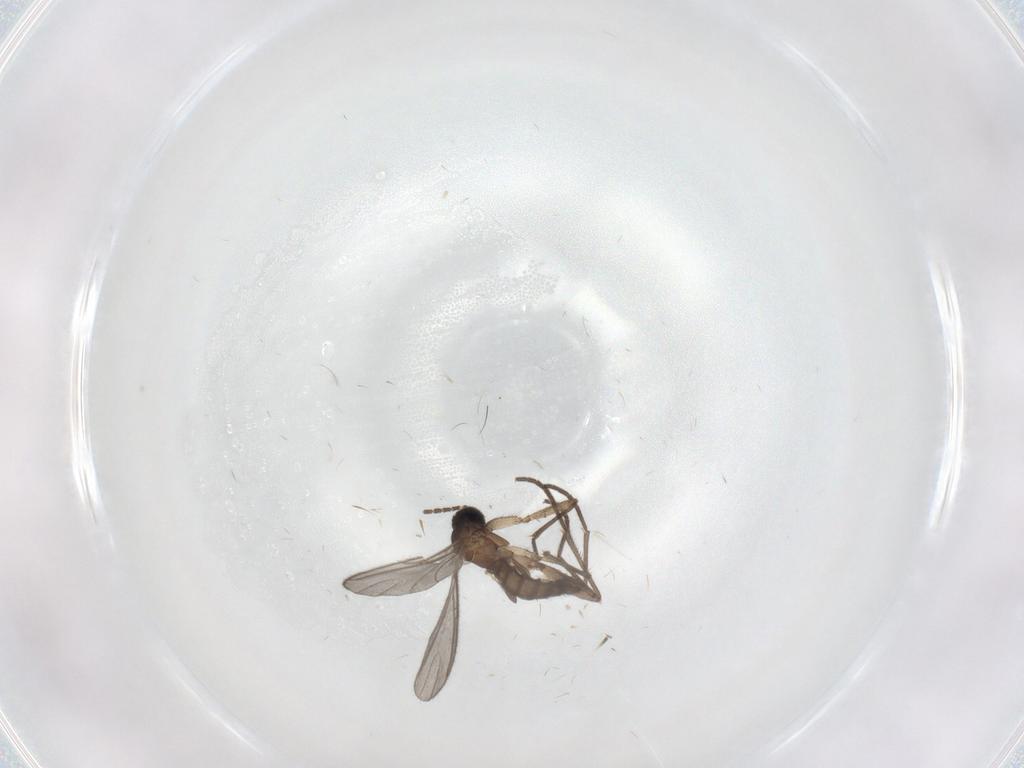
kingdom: Animalia
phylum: Arthropoda
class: Insecta
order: Diptera
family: Sciaridae
